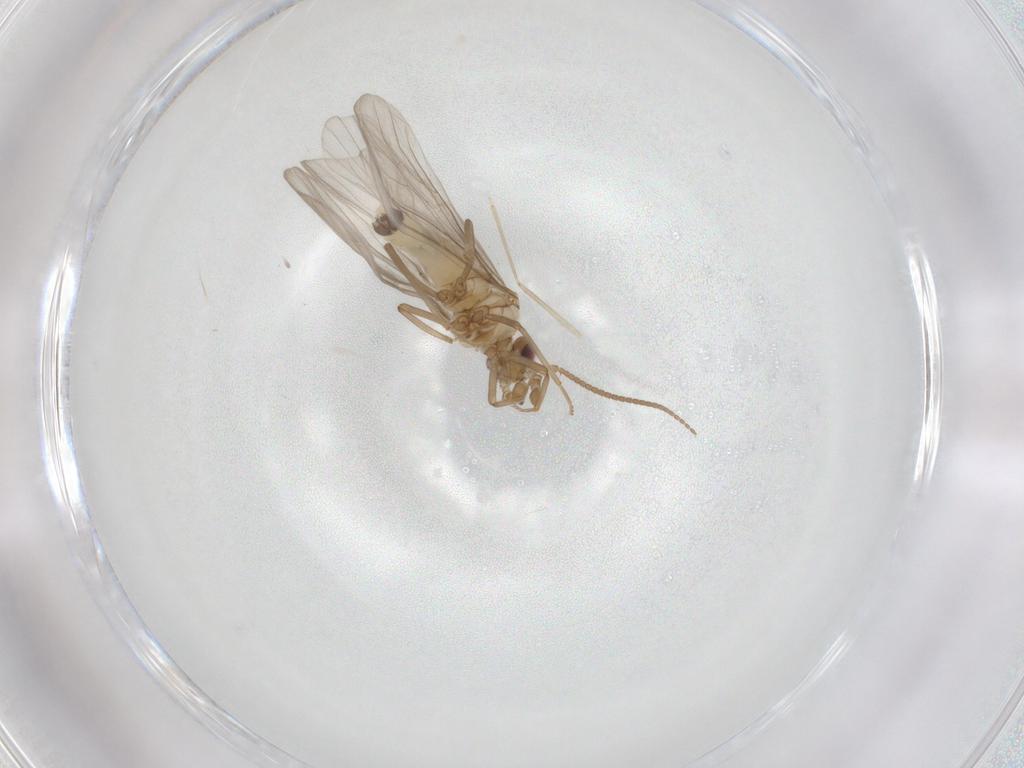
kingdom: Animalia
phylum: Arthropoda
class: Insecta
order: Neuroptera
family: Coniopterygidae
